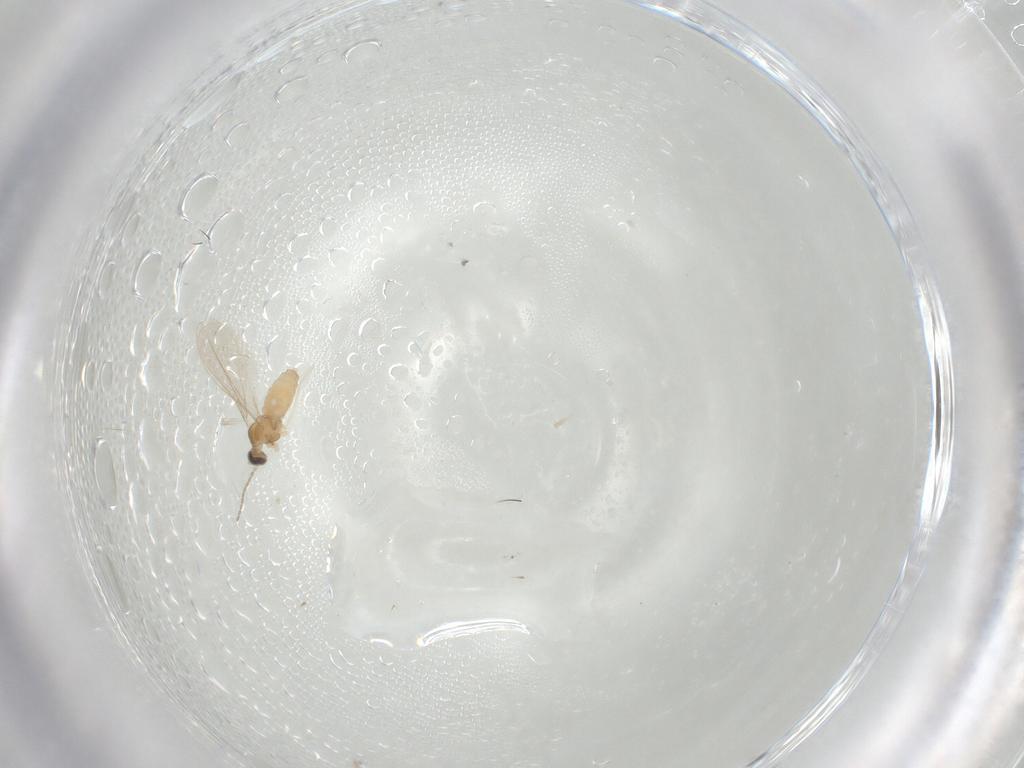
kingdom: Animalia
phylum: Arthropoda
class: Insecta
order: Diptera
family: Cecidomyiidae
